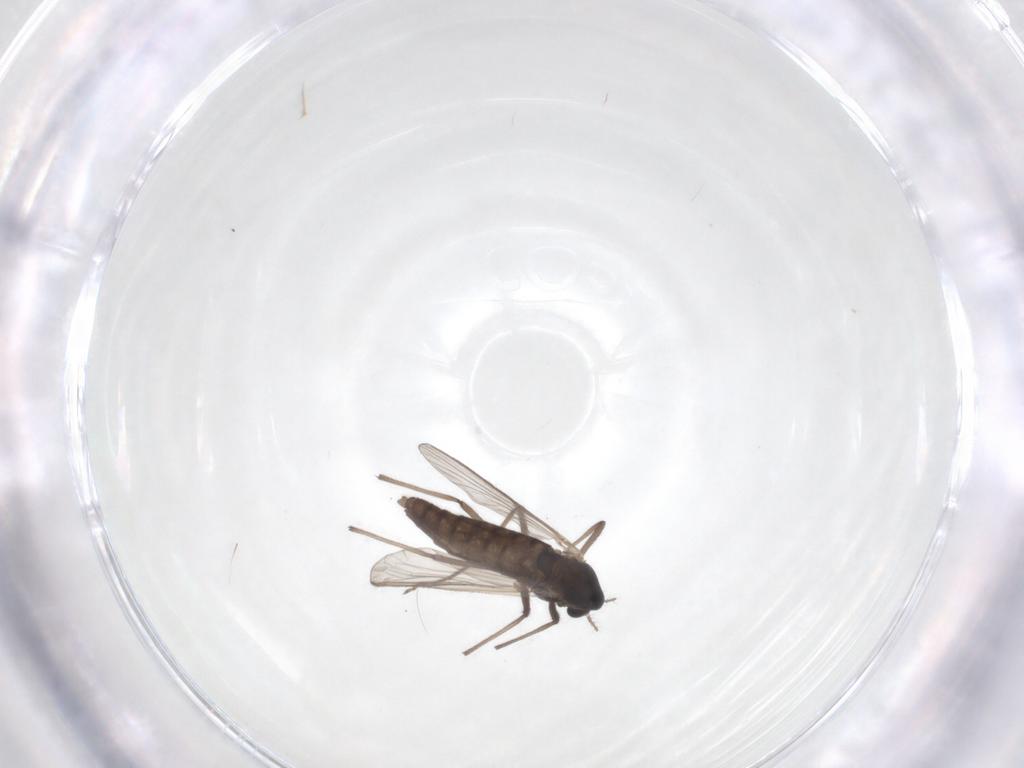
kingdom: Animalia
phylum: Arthropoda
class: Insecta
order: Diptera
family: Chironomidae
